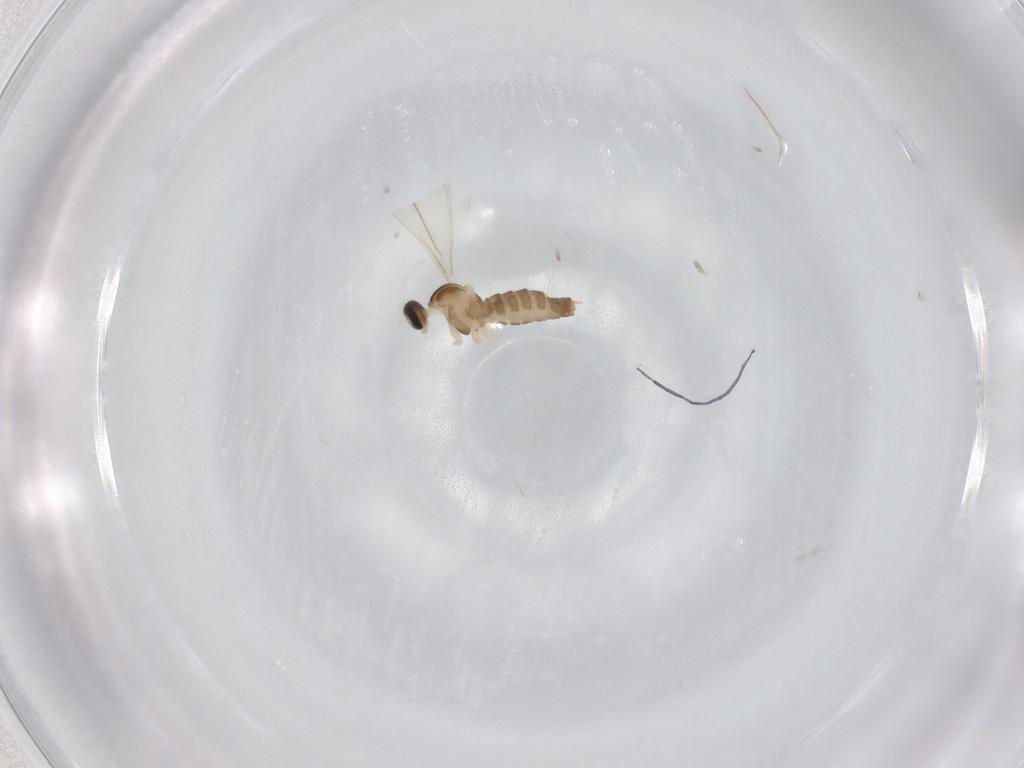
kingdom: Animalia
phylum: Arthropoda
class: Insecta
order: Diptera
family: Cecidomyiidae
